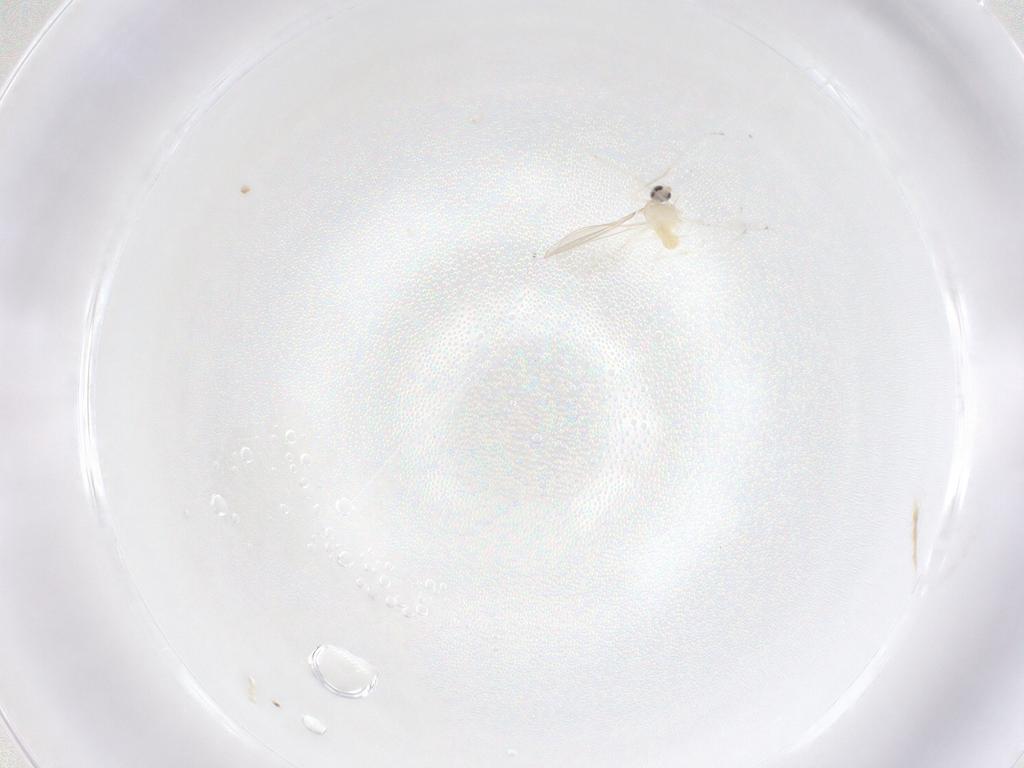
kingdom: Animalia
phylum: Arthropoda
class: Insecta
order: Diptera
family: Cecidomyiidae
